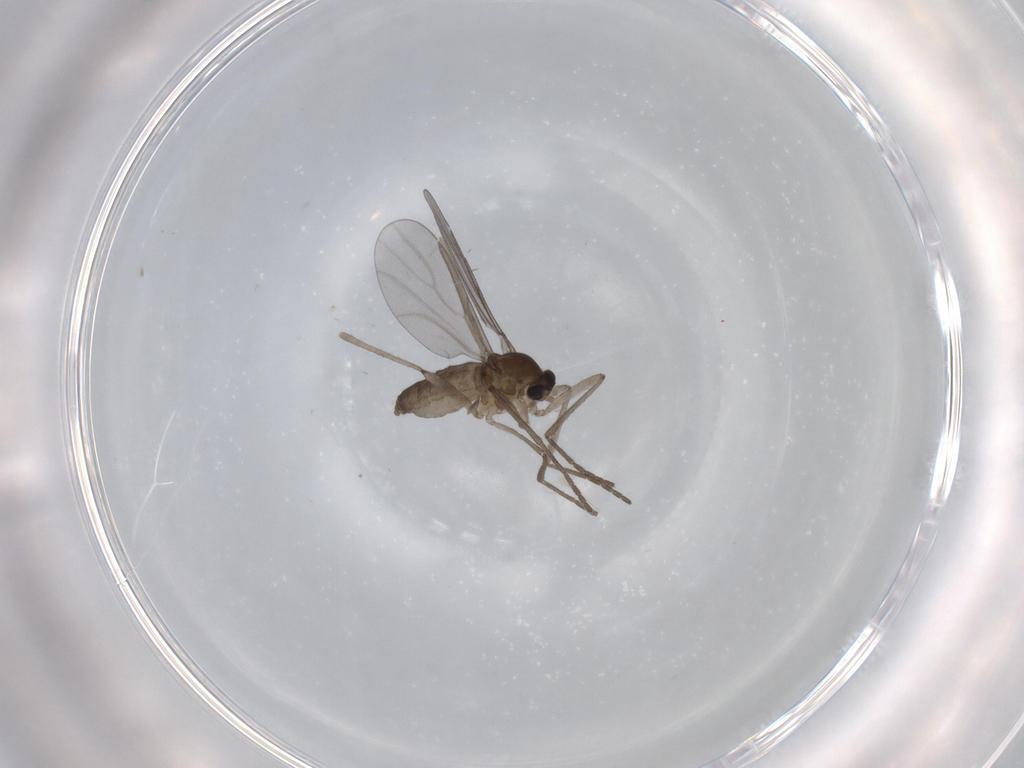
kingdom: Animalia
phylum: Arthropoda
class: Insecta
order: Diptera
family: Cecidomyiidae
